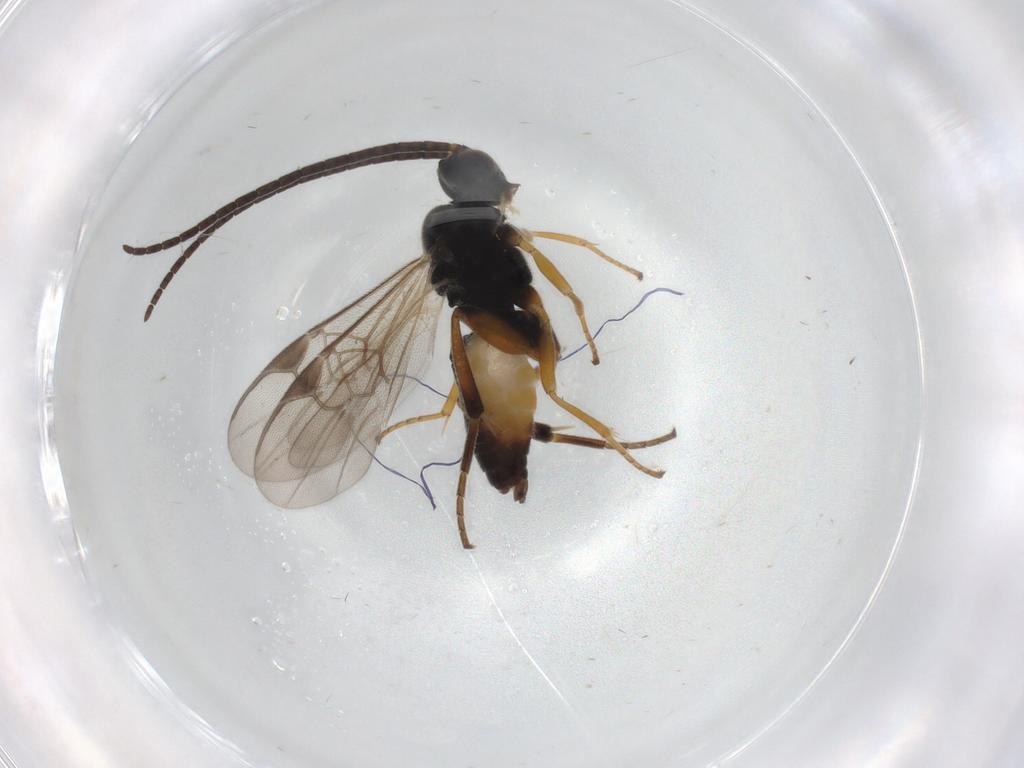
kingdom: Animalia
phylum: Arthropoda
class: Insecta
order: Hymenoptera
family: Braconidae
